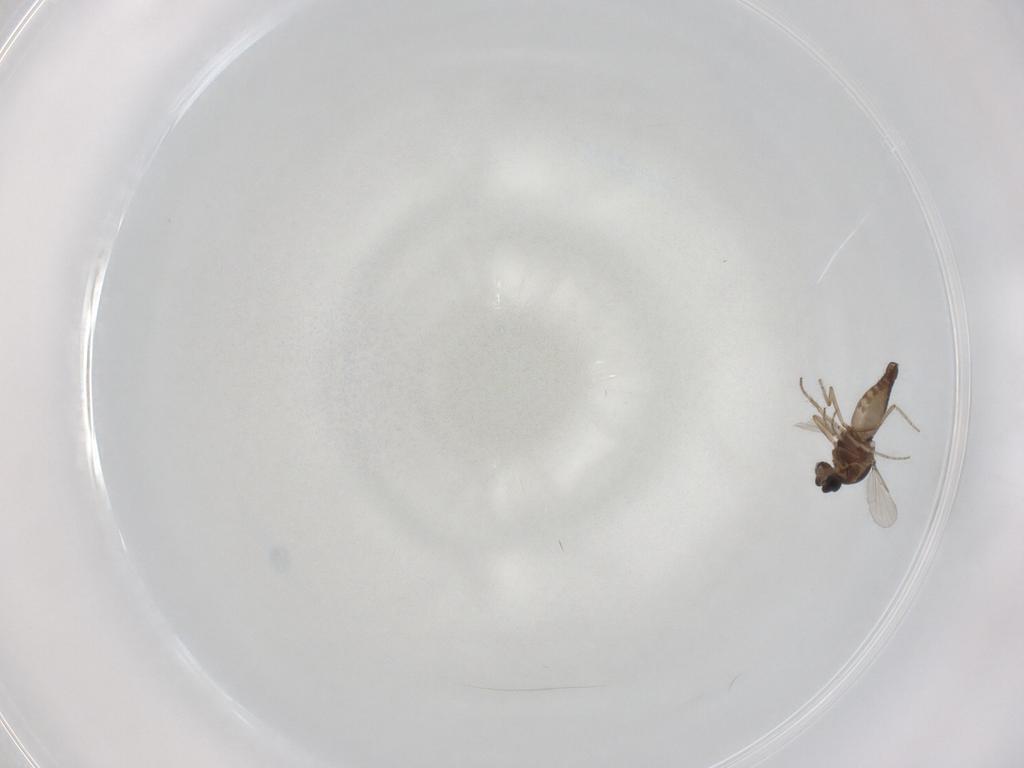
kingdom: Animalia
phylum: Arthropoda
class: Insecta
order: Diptera
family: Ceratopogonidae
